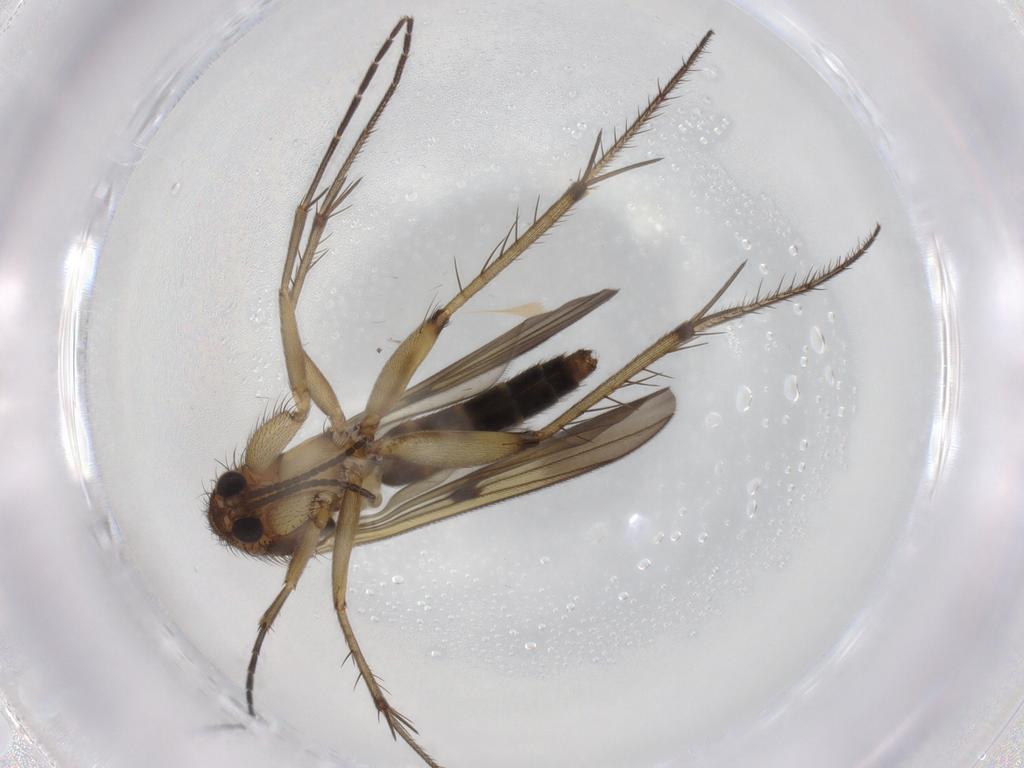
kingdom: Animalia
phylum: Arthropoda
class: Insecta
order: Diptera
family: Mycetophilidae
